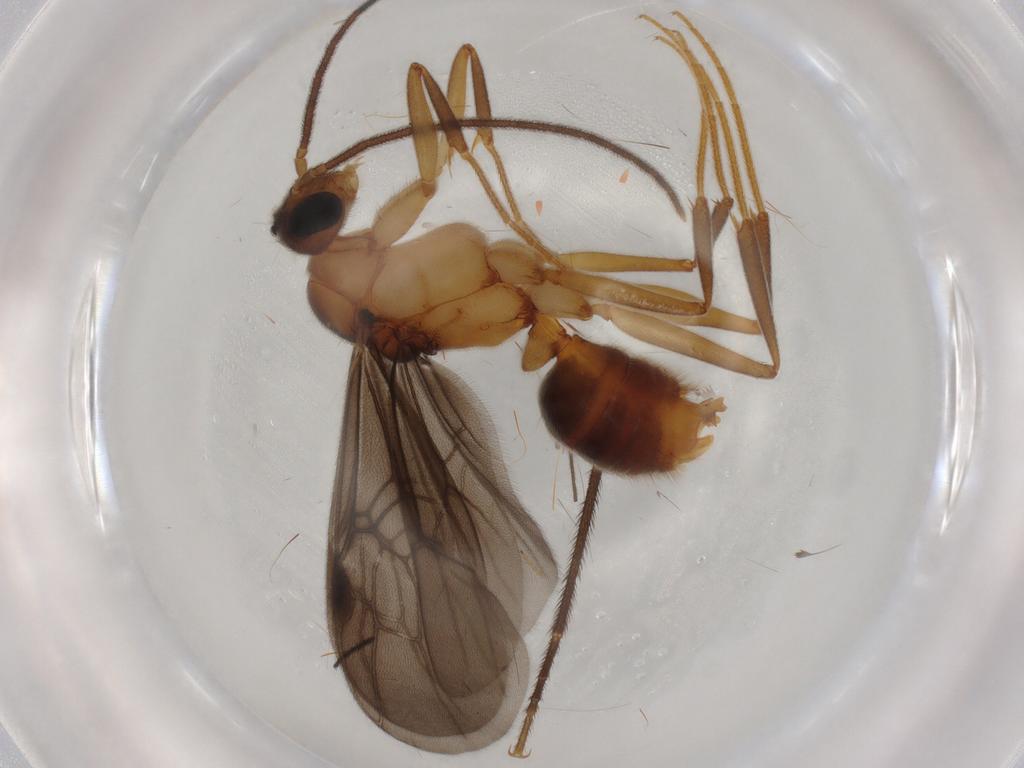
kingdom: Animalia
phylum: Arthropoda
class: Insecta
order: Hymenoptera
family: Formicidae
